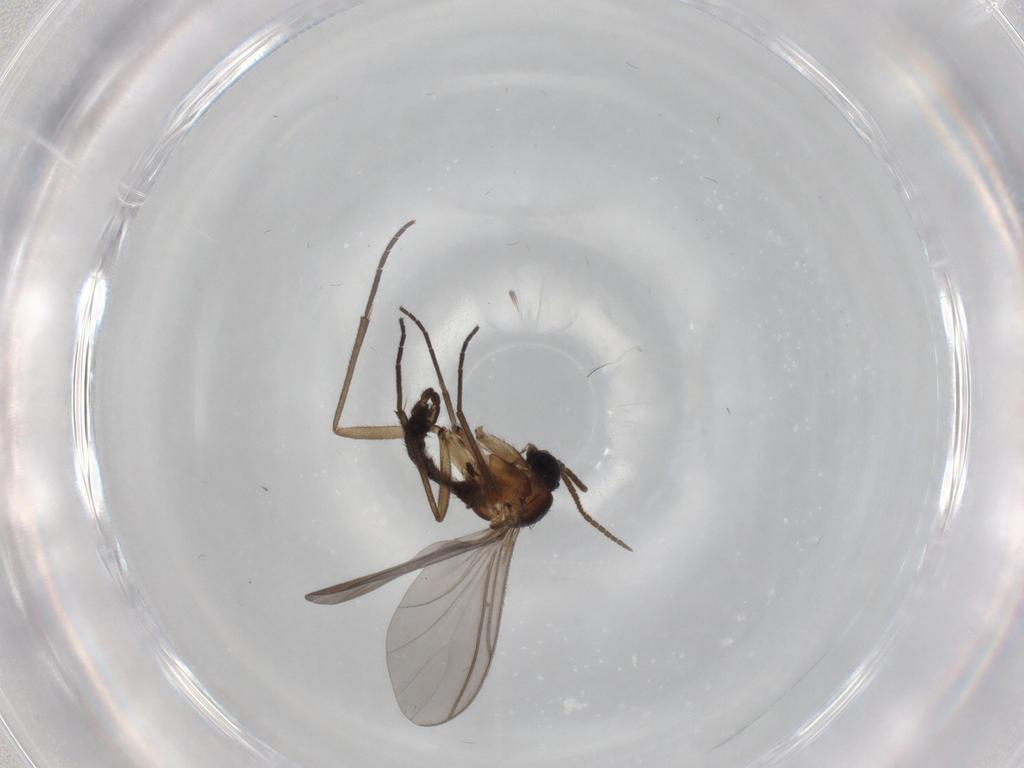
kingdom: Animalia
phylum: Arthropoda
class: Insecta
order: Diptera
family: Sciaridae
